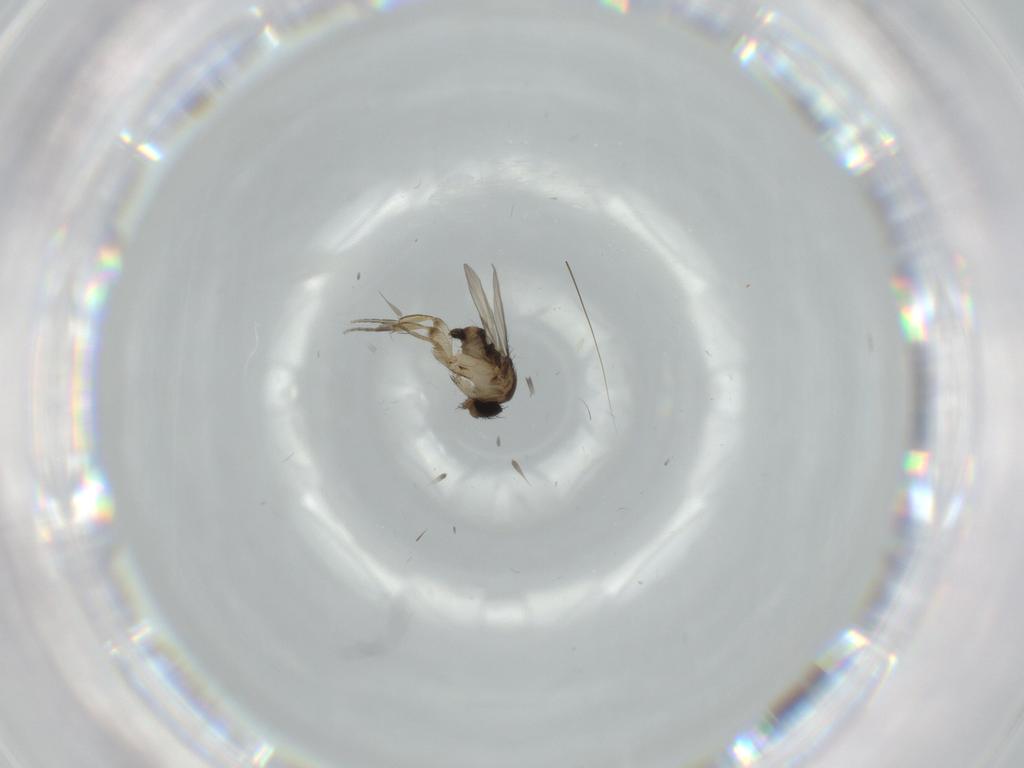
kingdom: Animalia
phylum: Arthropoda
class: Insecta
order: Diptera
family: Phoridae
